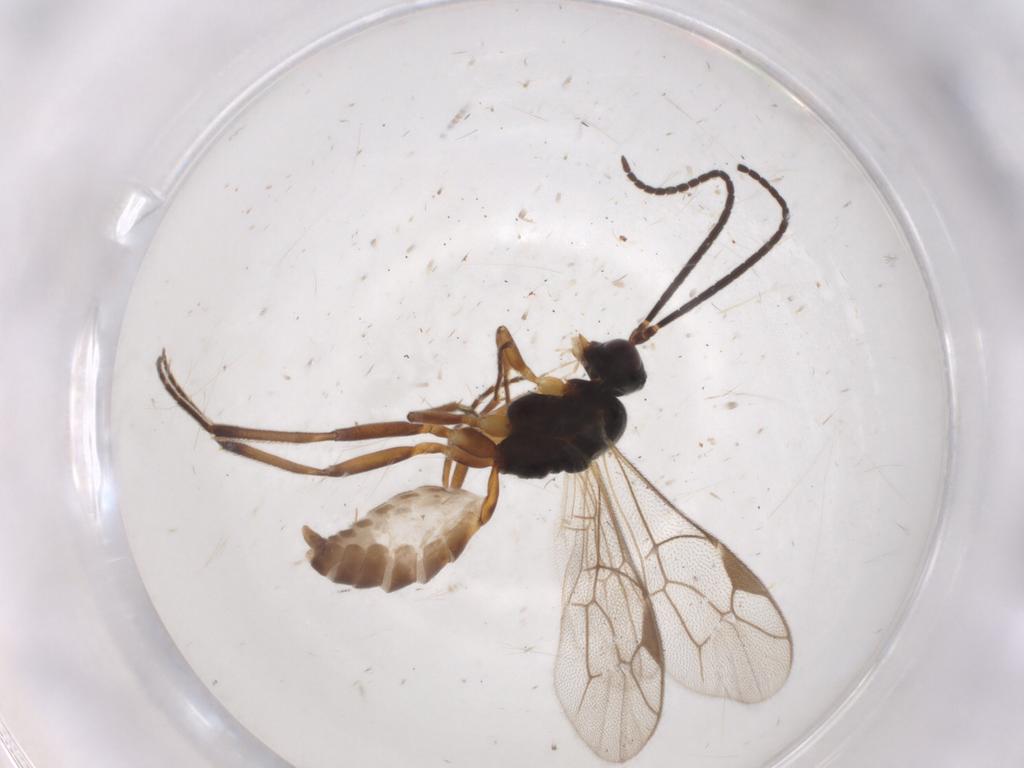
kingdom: Animalia
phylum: Arthropoda
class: Insecta
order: Hymenoptera
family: Ichneumonidae
